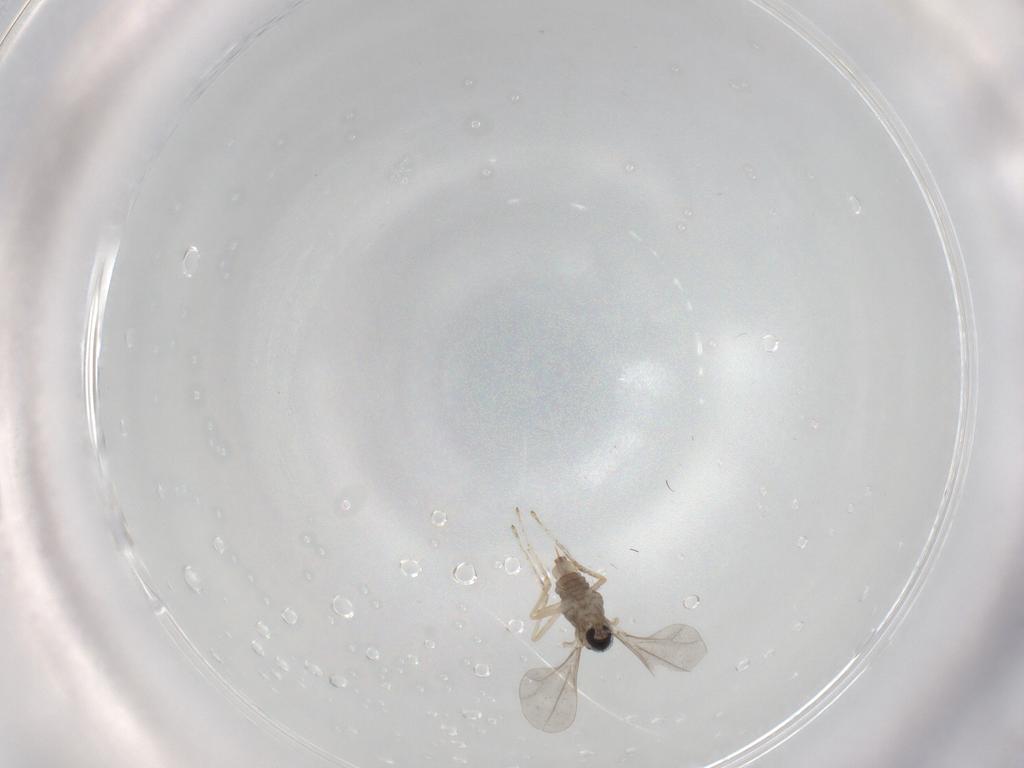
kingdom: Animalia
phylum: Arthropoda
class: Insecta
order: Diptera
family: Cecidomyiidae
